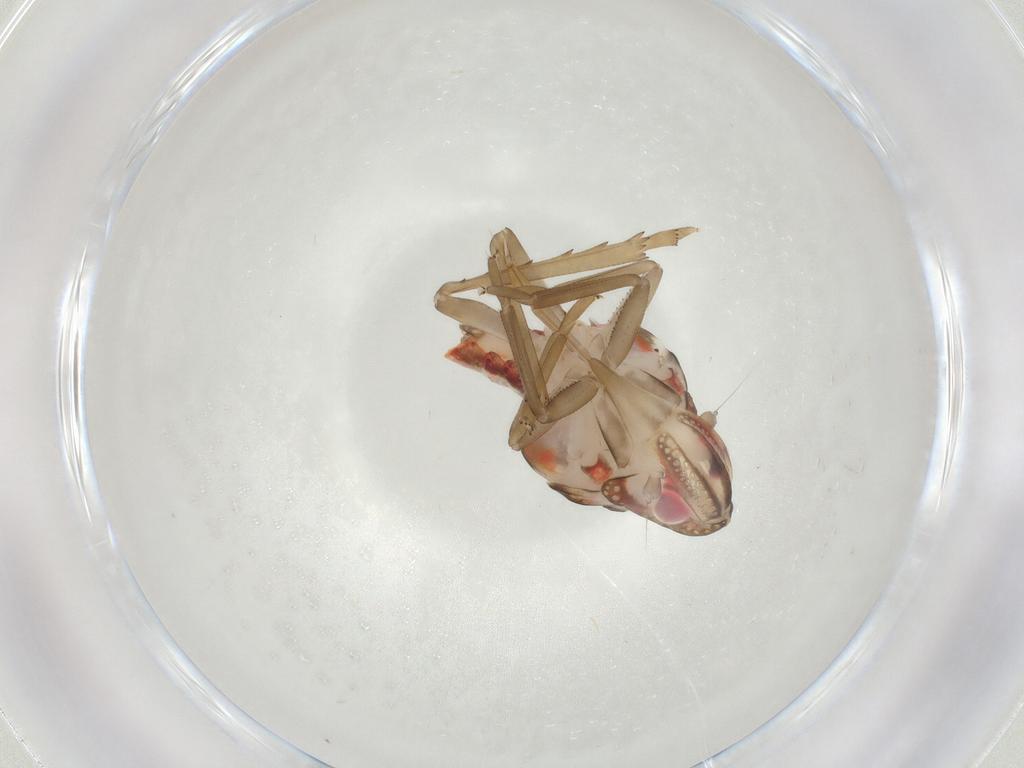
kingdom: Animalia
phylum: Arthropoda
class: Insecta
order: Hemiptera
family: Nogodinidae
